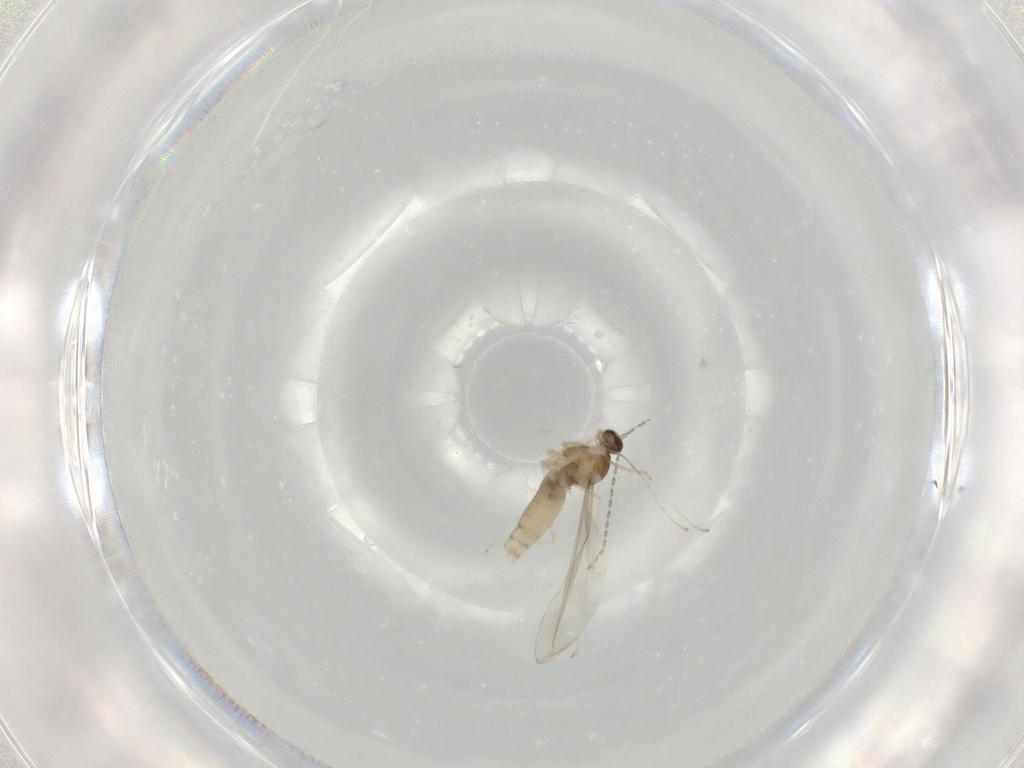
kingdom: Animalia
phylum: Arthropoda
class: Insecta
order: Diptera
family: Cecidomyiidae
